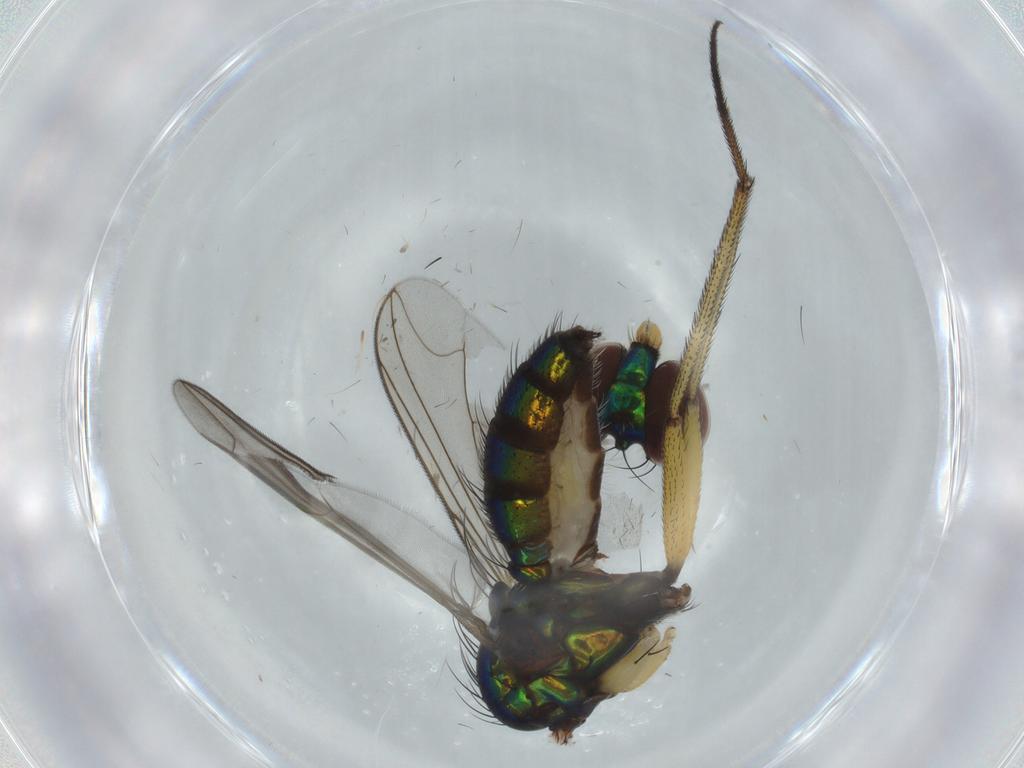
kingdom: Animalia
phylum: Arthropoda
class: Insecta
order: Diptera
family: Dolichopodidae
